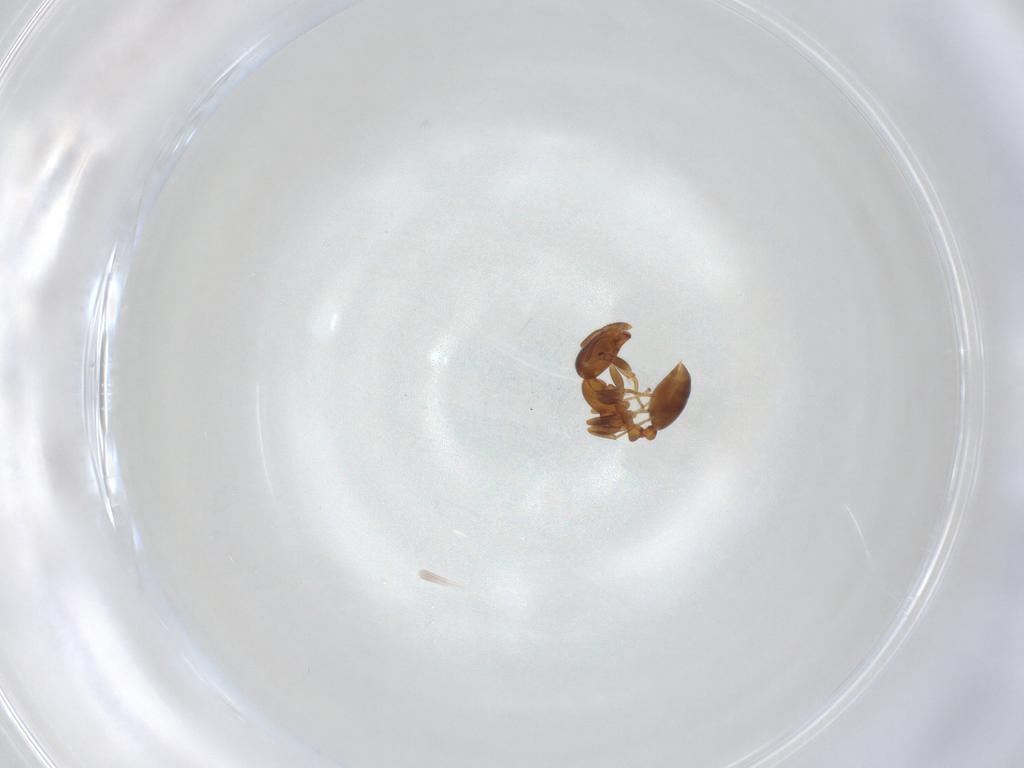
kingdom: Animalia
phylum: Arthropoda
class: Insecta
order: Hymenoptera
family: Formicidae
